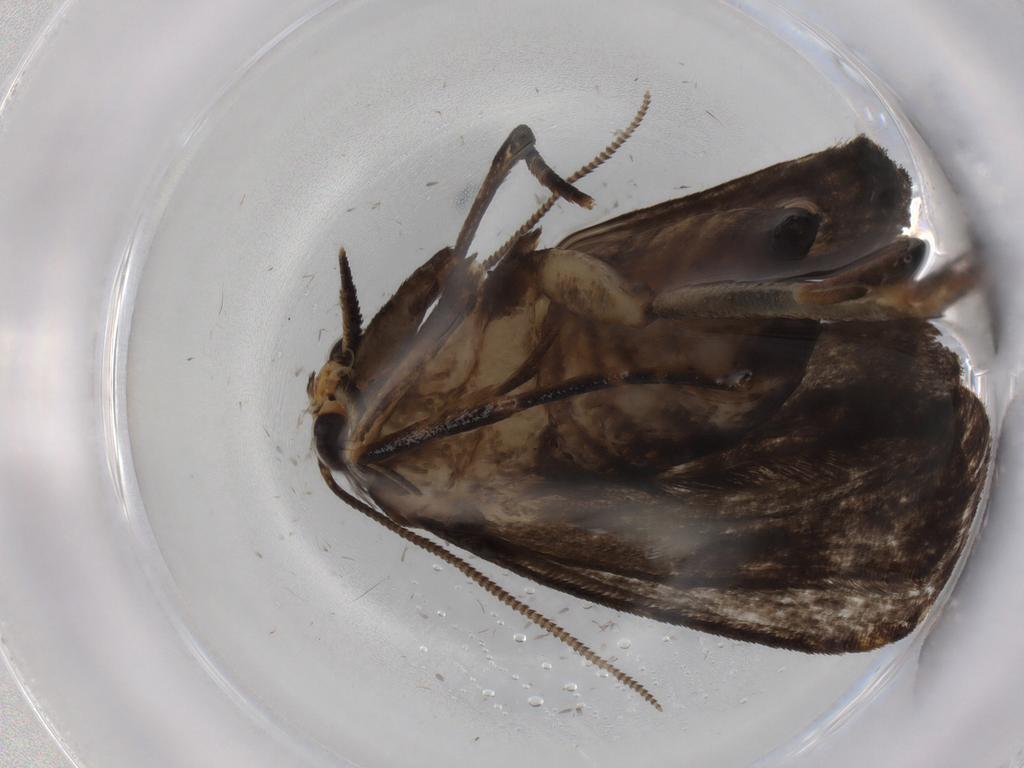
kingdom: Animalia
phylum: Arthropoda
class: Insecta
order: Lepidoptera
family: Tineidae
